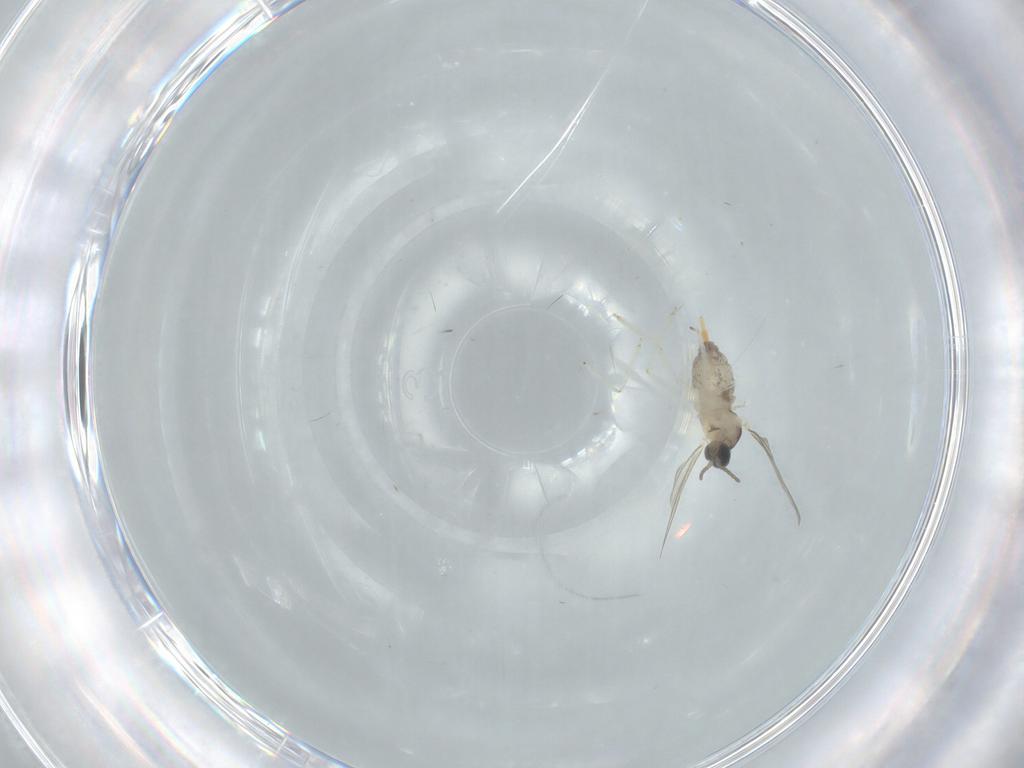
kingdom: Animalia
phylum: Arthropoda
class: Insecta
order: Diptera
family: Cecidomyiidae
